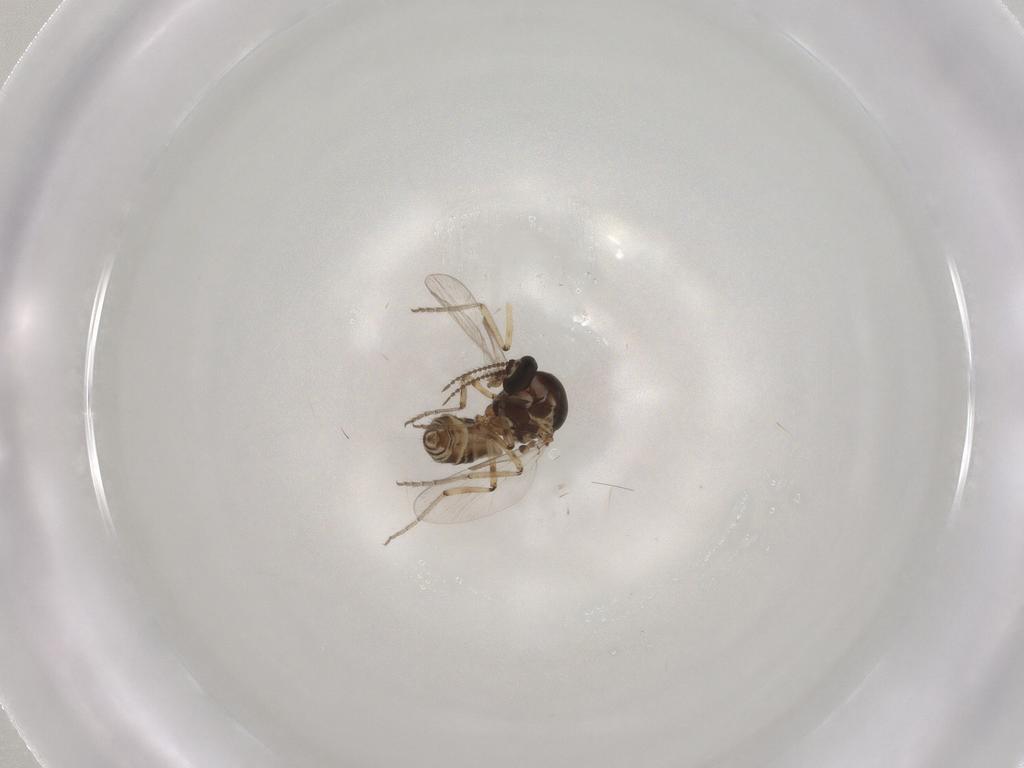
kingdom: Animalia
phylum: Arthropoda
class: Insecta
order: Diptera
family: Ceratopogonidae
